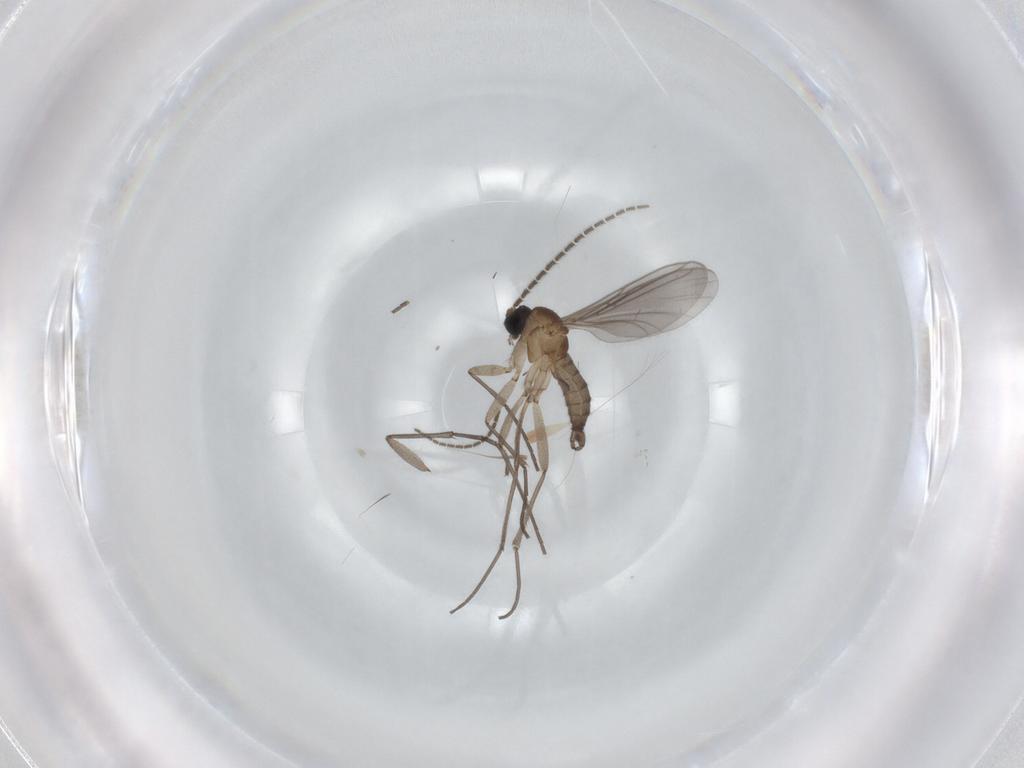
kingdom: Animalia
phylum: Arthropoda
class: Insecta
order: Diptera
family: Sciaridae
